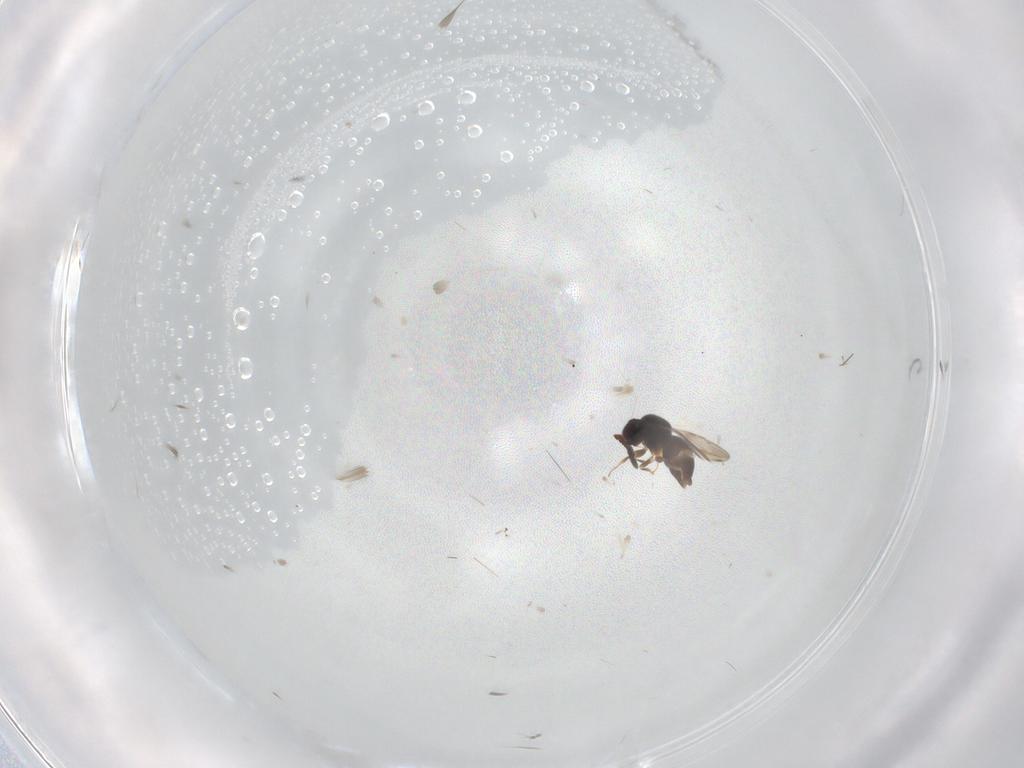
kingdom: Animalia
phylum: Arthropoda
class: Insecta
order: Hymenoptera
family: Ceraphronidae
